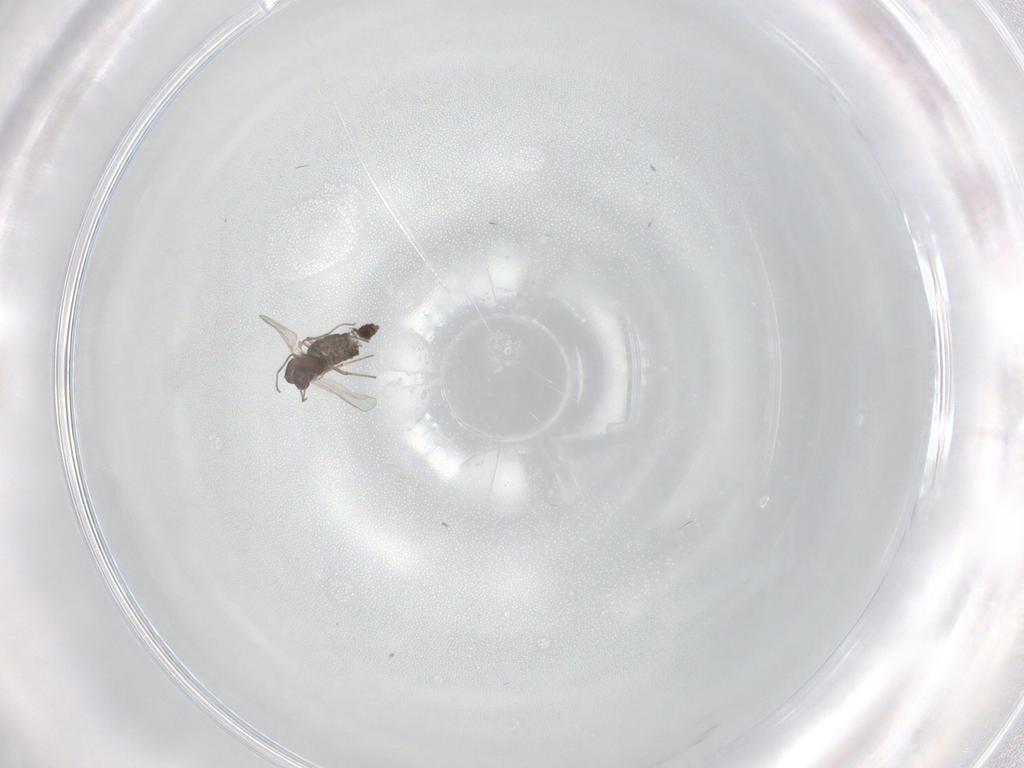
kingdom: Animalia
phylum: Arthropoda
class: Insecta
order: Diptera
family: Chironomidae
